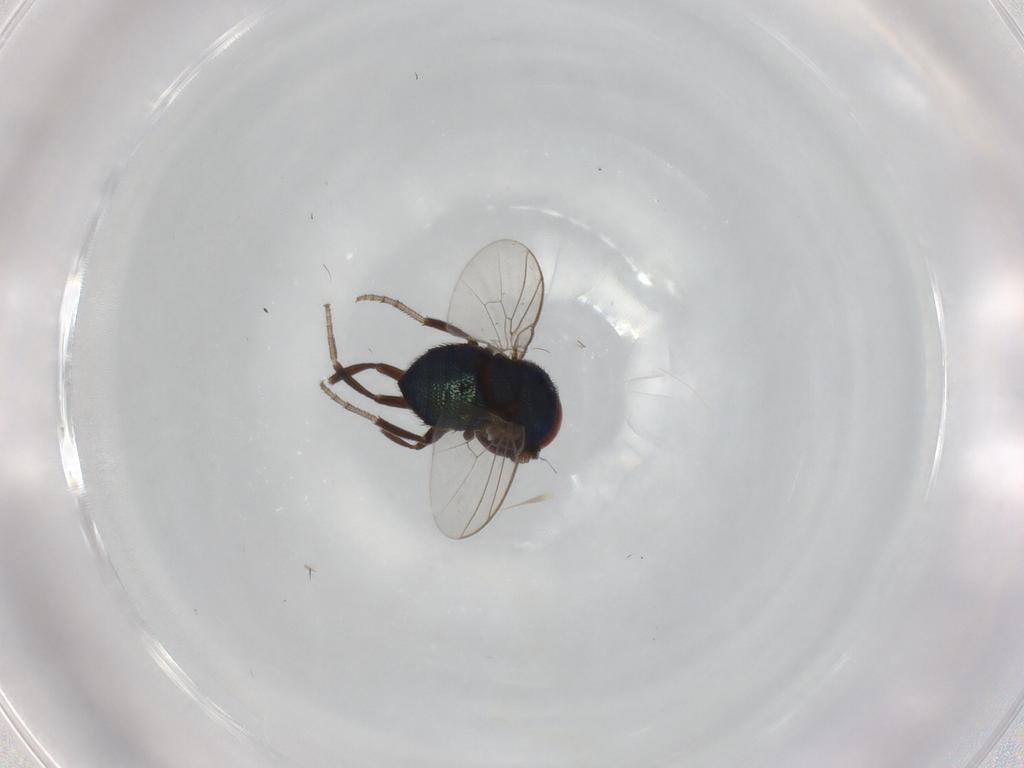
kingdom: Animalia
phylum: Arthropoda
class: Insecta
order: Diptera
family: Cryptochetidae
